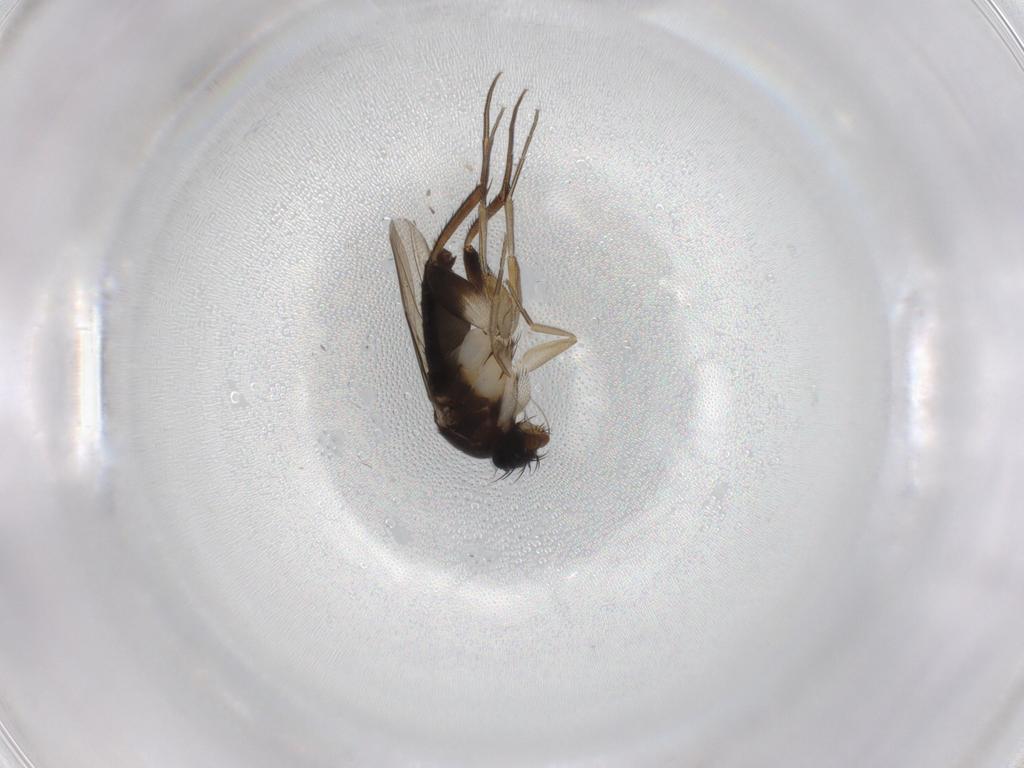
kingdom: Animalia
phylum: Arthropoda
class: Insecta
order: Diptera
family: Phoridae
